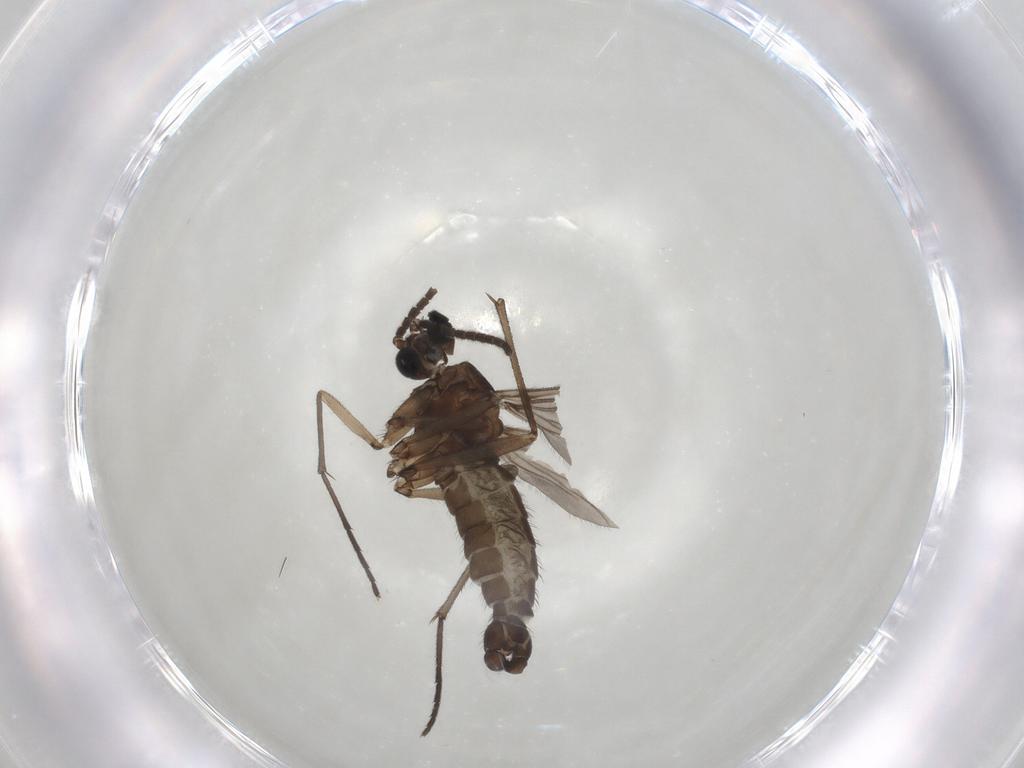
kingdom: Animalia
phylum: Arthropoda
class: Insecta
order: Diptera
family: Sciaridae
